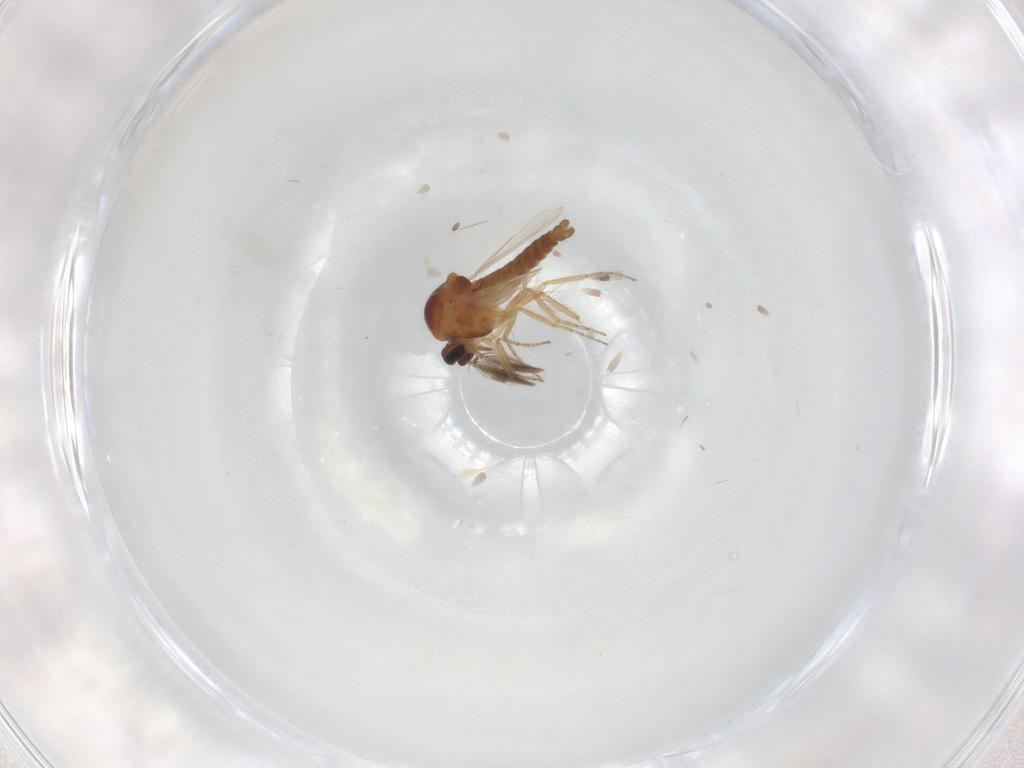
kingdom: Animalia
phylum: Arthropoda
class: Insecta
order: Diptera
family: Ceratopogonidae
